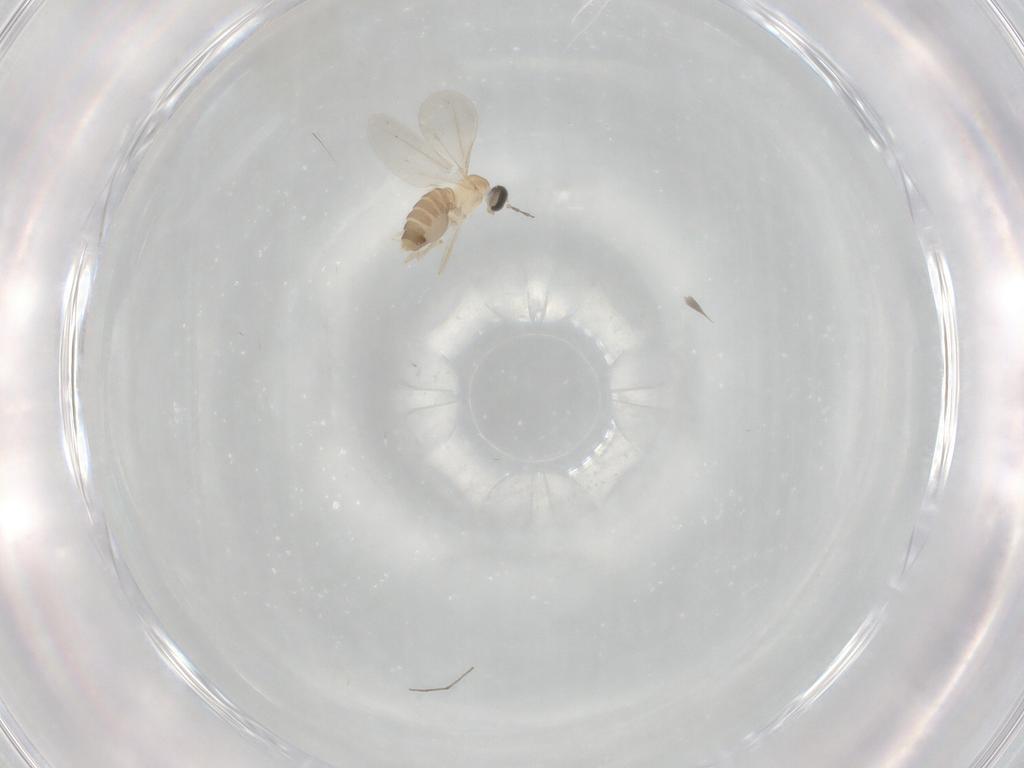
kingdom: Animalia
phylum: Arthropoda
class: Insecta
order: Diptera
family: Cecidomyiidae
